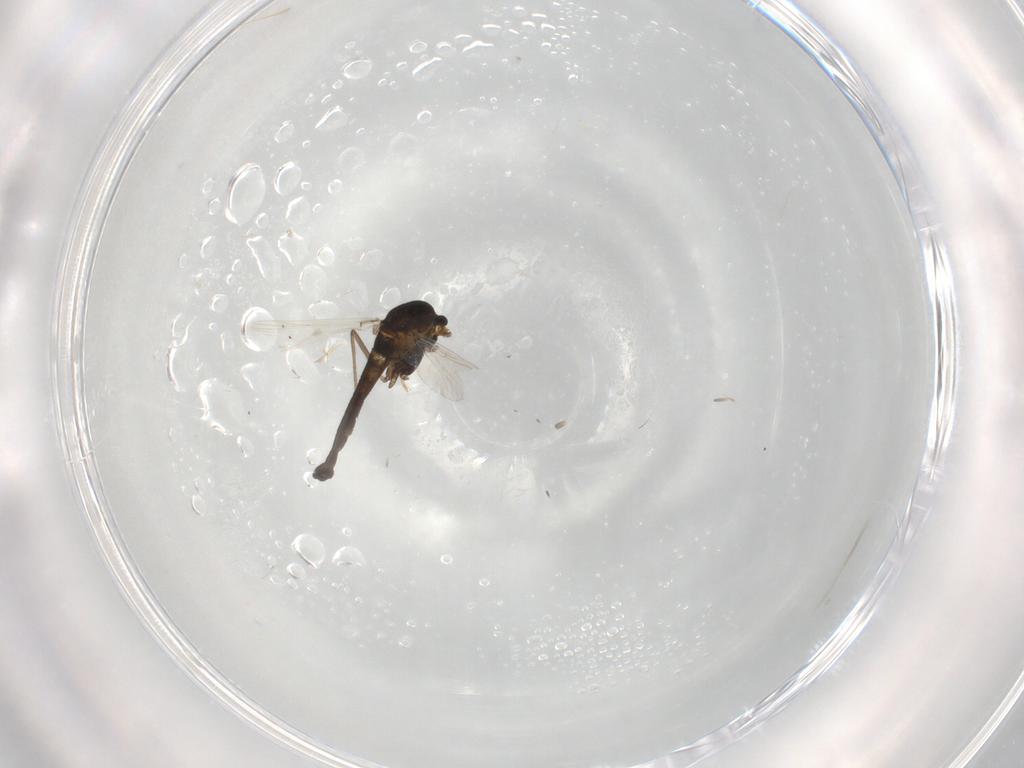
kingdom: Animalia
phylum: Arthropoda
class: Insecta
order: Diptera
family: Chironomidae
